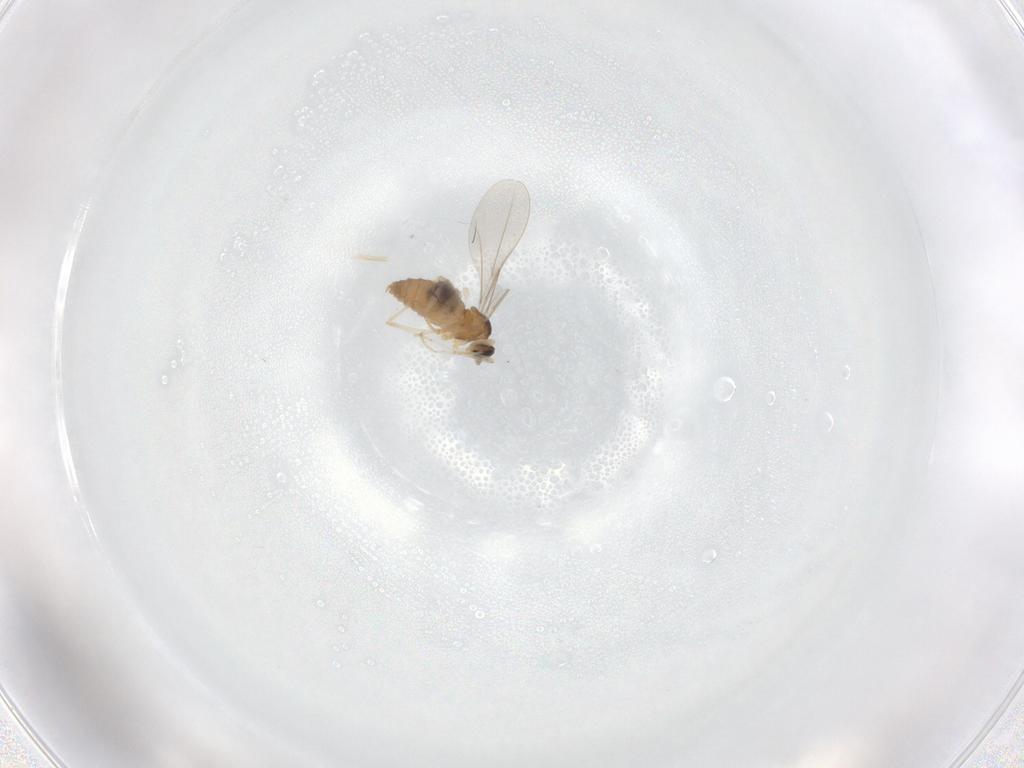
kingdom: Animalia
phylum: Arthropoda
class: Insecta
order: Diptera
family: Cecidomyiidae
